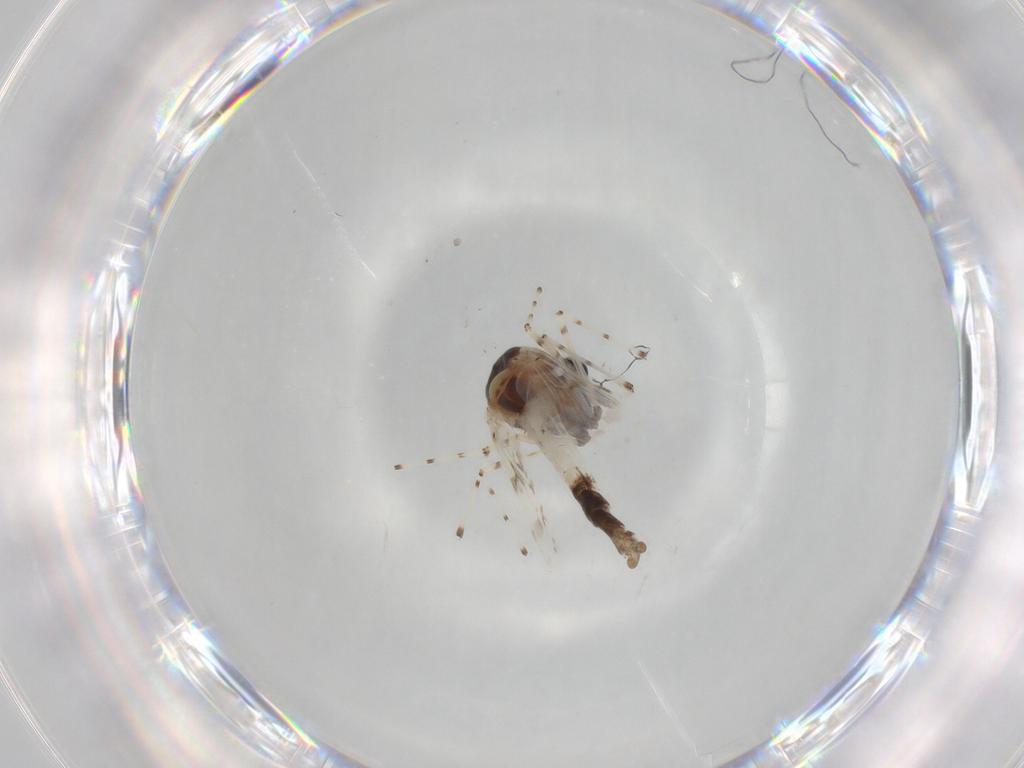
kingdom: Animalia
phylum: Arthropoda
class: Insecta
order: Diptera
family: Chironomidae
